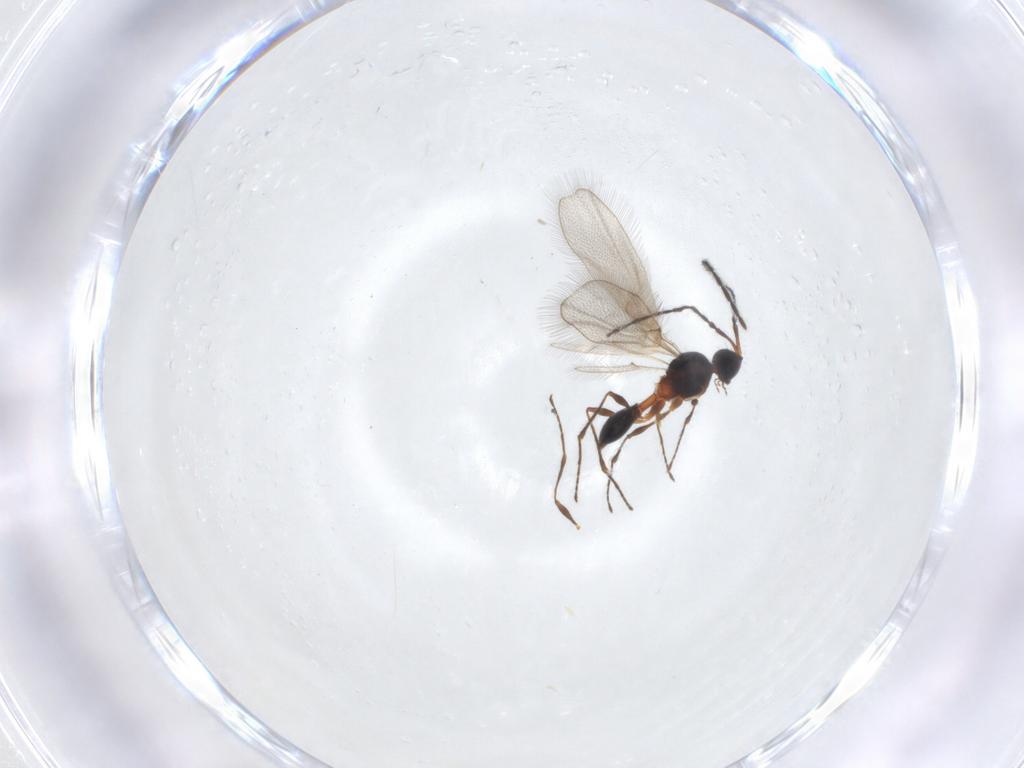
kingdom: Animalia
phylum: Arthropoda
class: Insecta
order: Hymenoptera
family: Diapriidae
